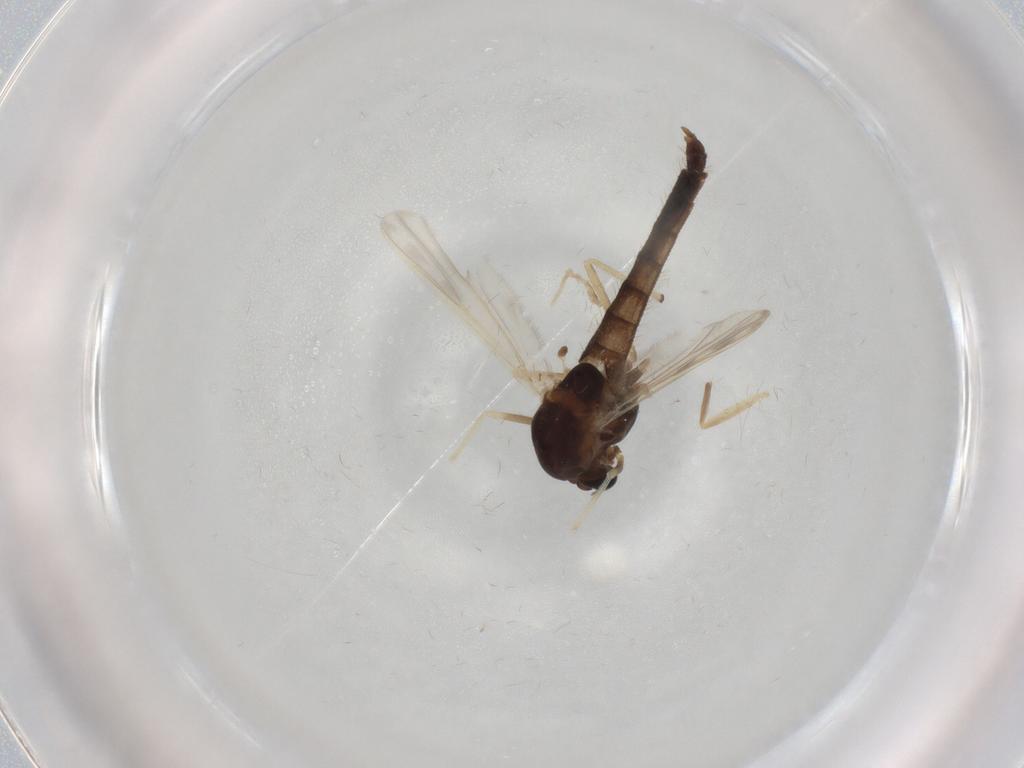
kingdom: Animalia
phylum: Arthropoda
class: Insecta
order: Diptera
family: Chironomidae
